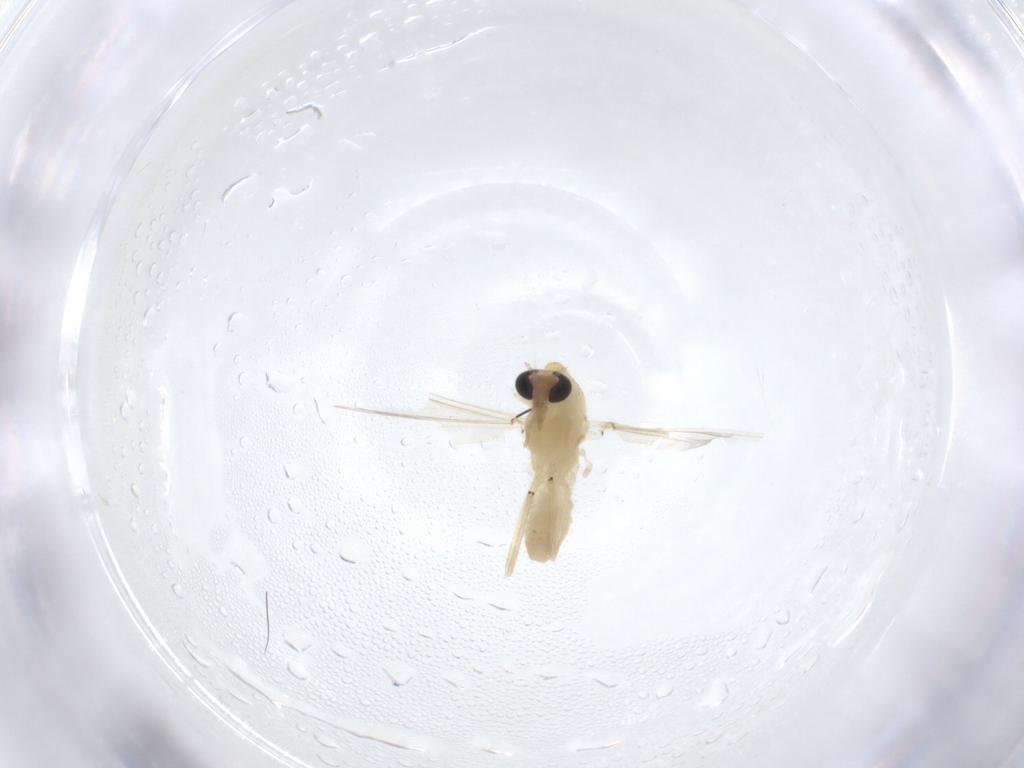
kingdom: Animalia
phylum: Arthropoda
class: Insecta
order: Diptera
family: Chironomidae
